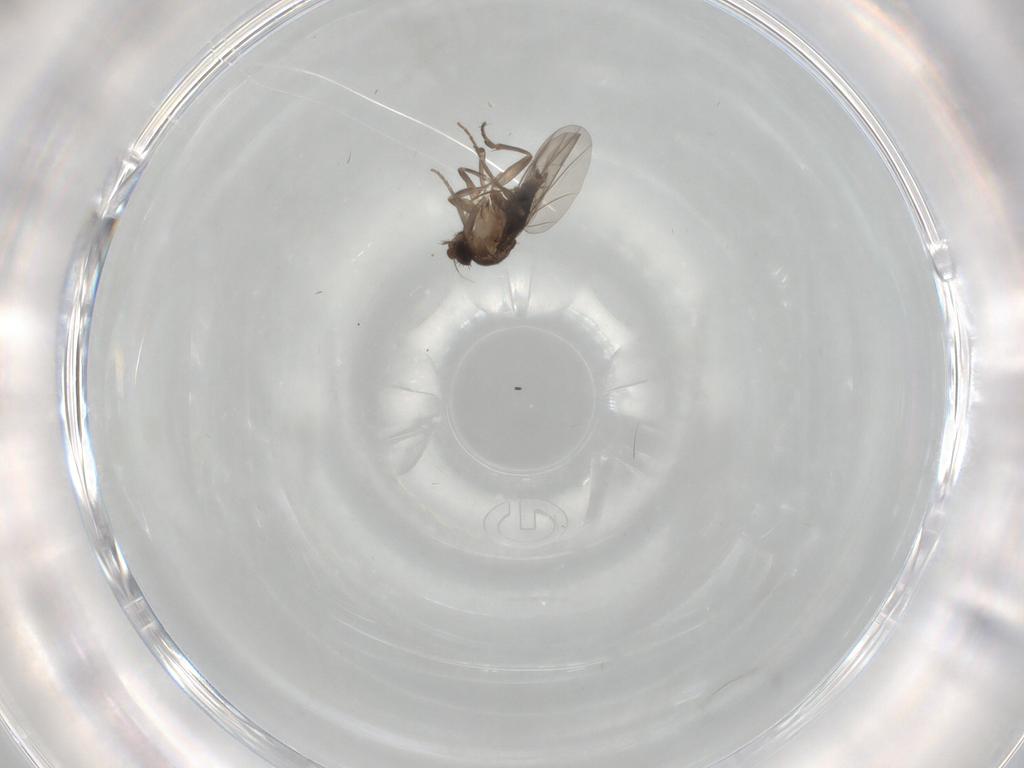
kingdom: Animalia
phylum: Arthropoda
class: Insecta
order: Diptera
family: Phoridae
